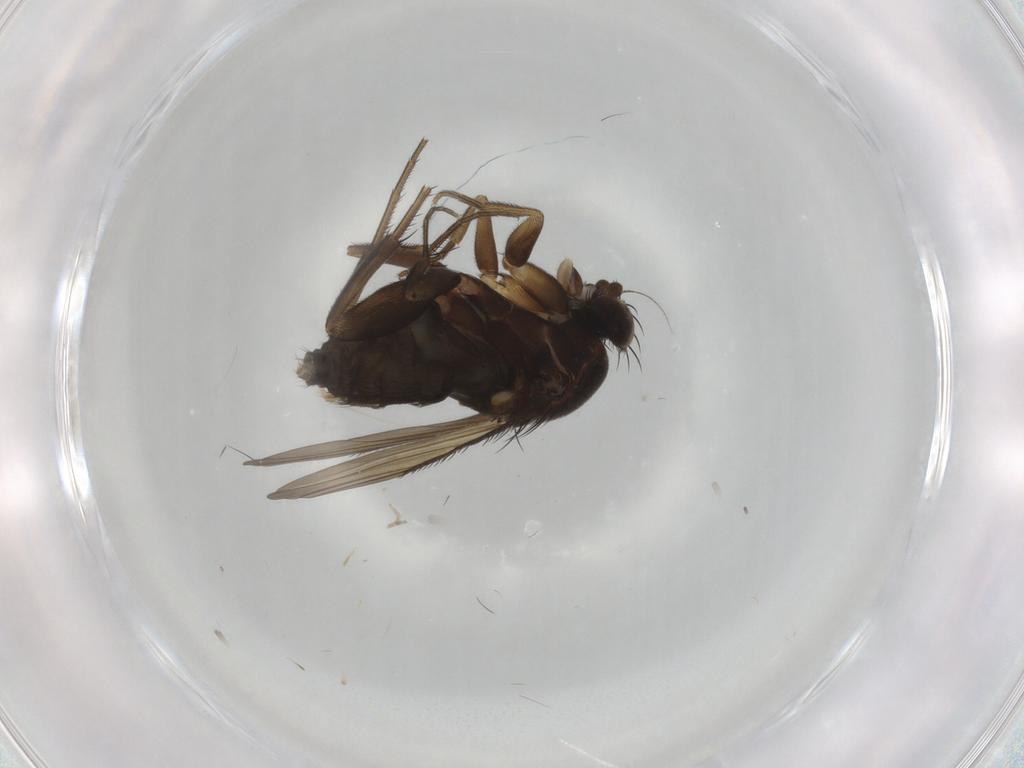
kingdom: Animalia
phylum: Arthropoda
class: Insecta
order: Diptera
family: Phoridae
